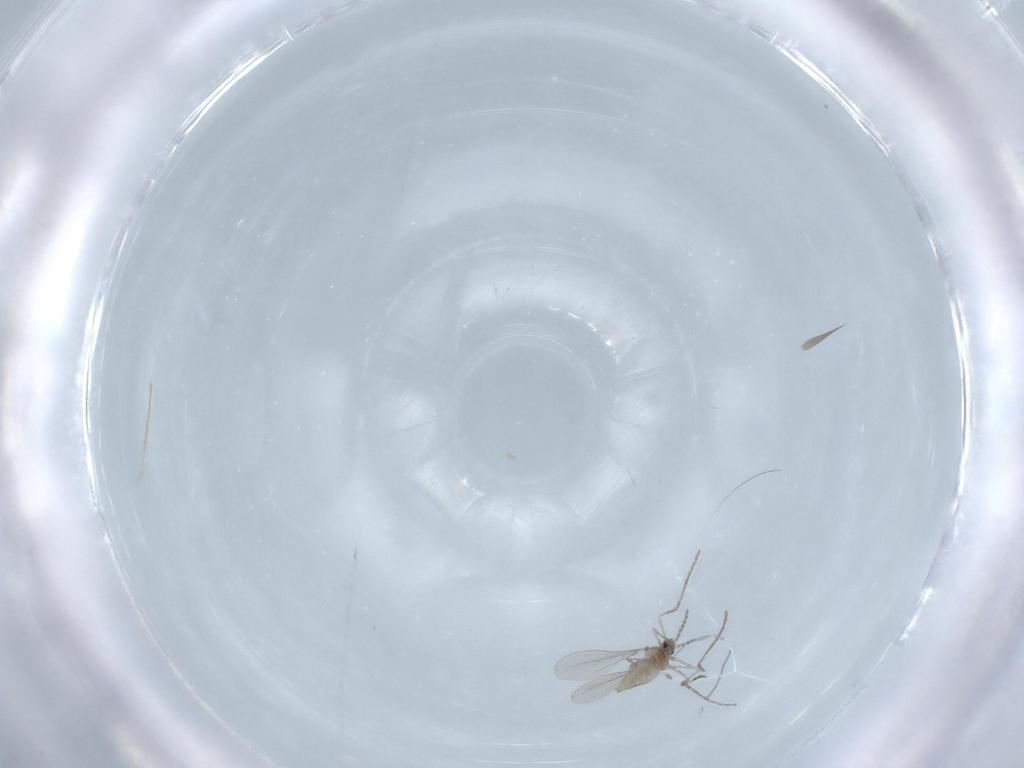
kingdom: Animalia
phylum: Arthropoda
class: Insecta
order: Diptera
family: Cecidomyiidae
